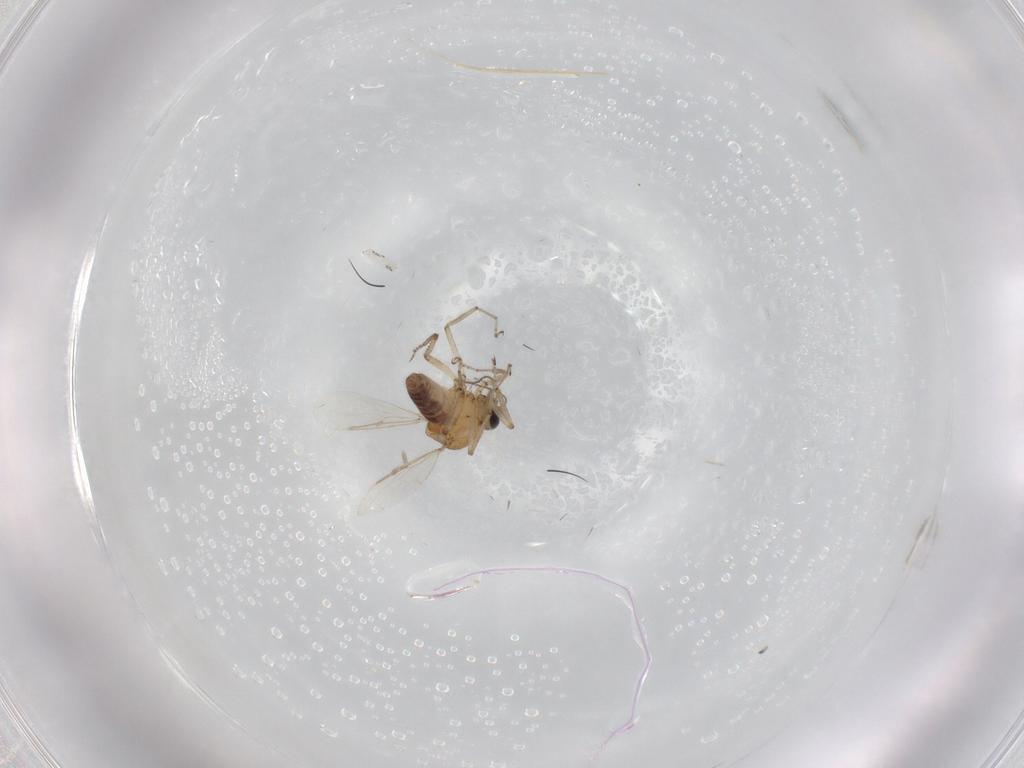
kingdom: Animalia
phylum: Arthropoda
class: Insecta
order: Diptera
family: Ceratopogonidae
